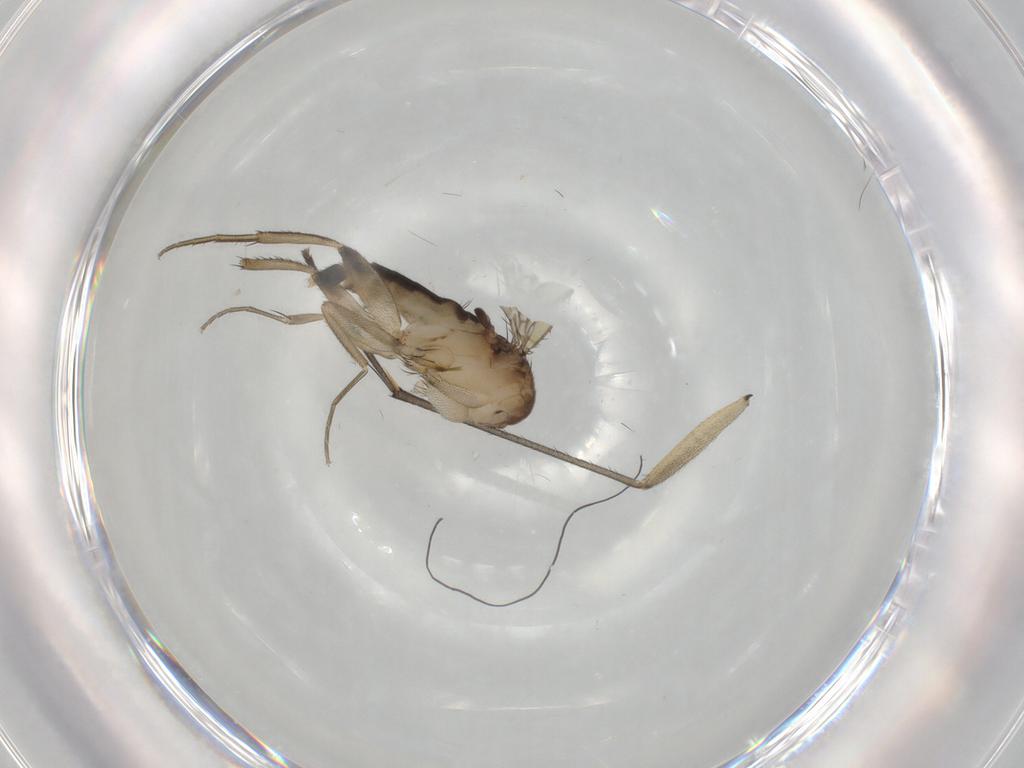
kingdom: Animalia
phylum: Arthropoda
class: Insecta
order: Diptera
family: Phoridae
